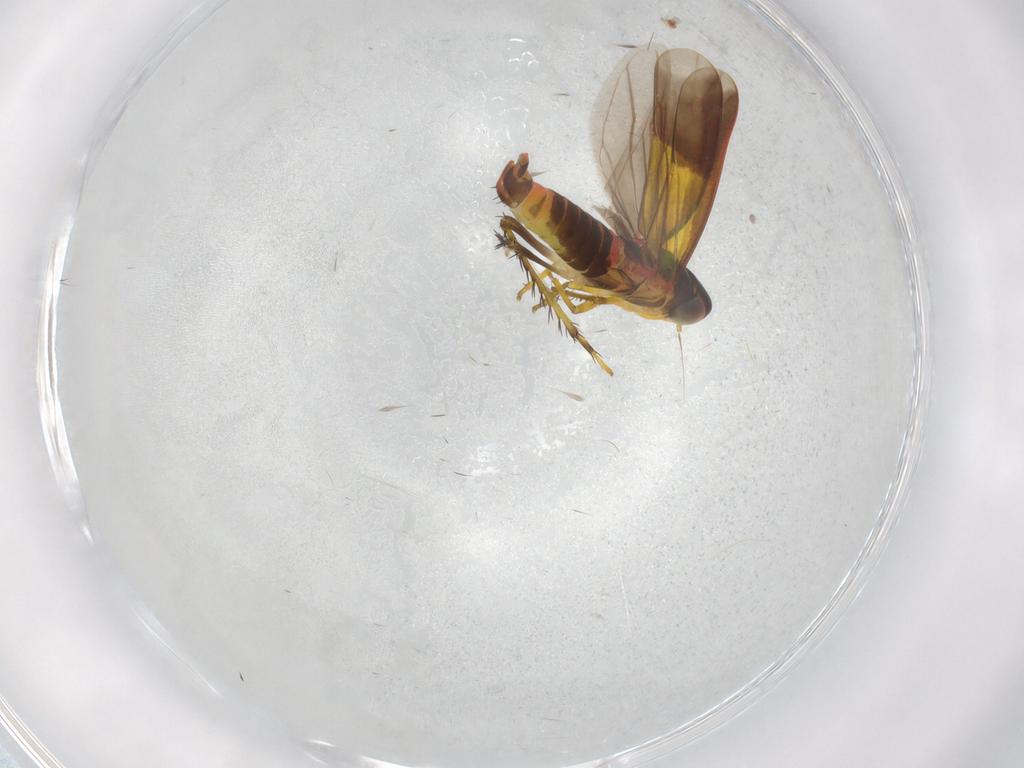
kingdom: Animalia
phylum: Arthropoda
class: Insecta
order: Hemiptera
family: Cicadellidae
